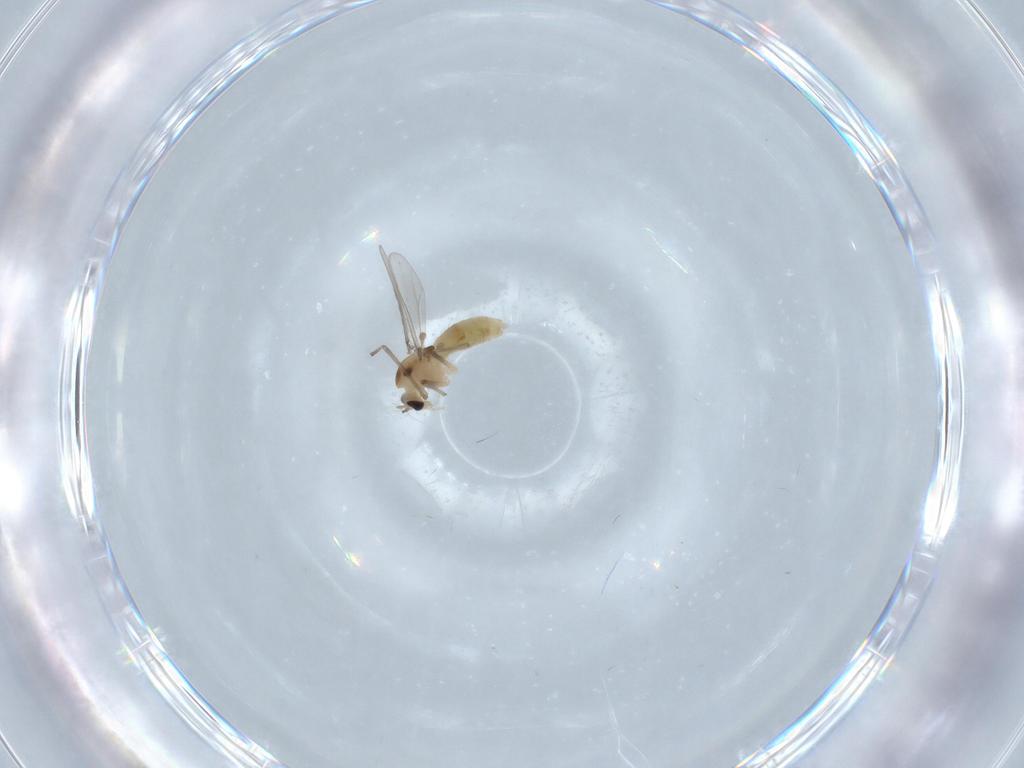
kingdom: Animalia
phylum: Arthropoda
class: Insecta
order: Diptera
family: Chironomidae
